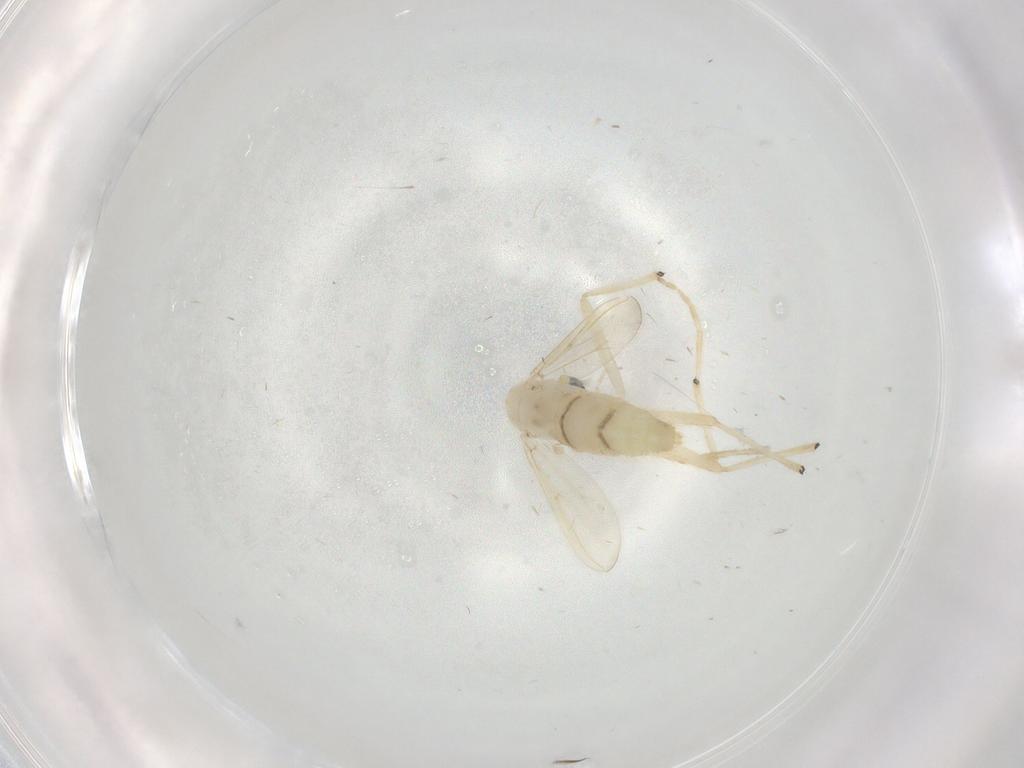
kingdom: Animalia
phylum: Arthropoda
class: Insecta
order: Diptera
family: Chironomidae
